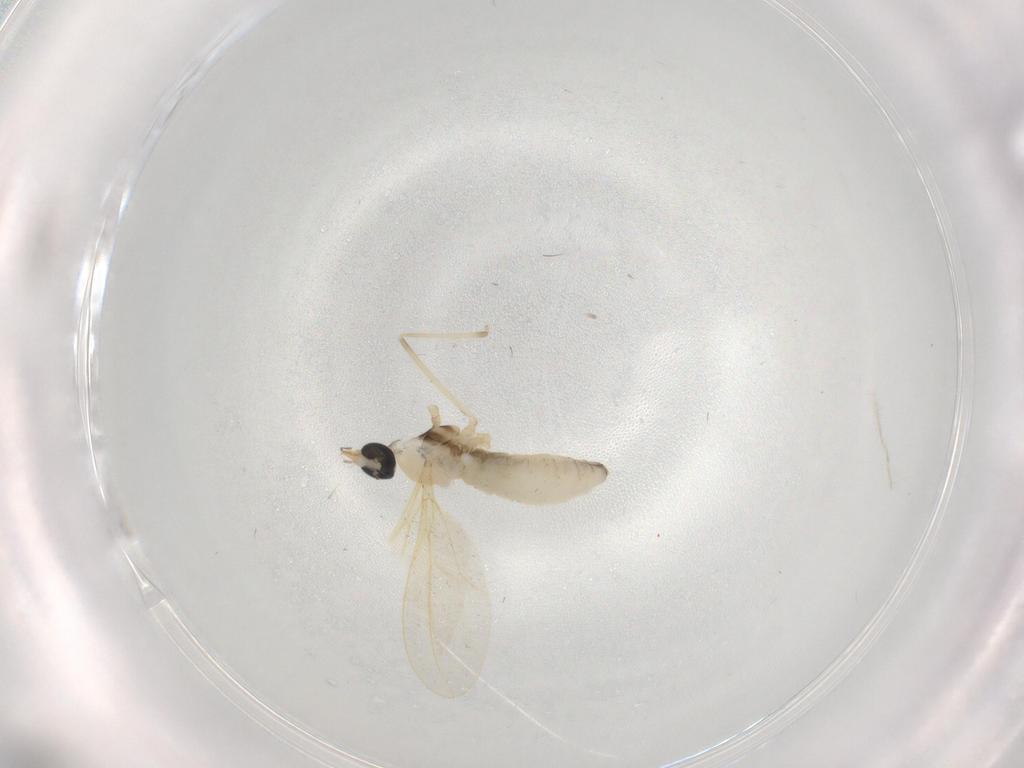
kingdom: Animalia
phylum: Arthropoda
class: Insecta
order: Diptera
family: Cecidomyiidae
